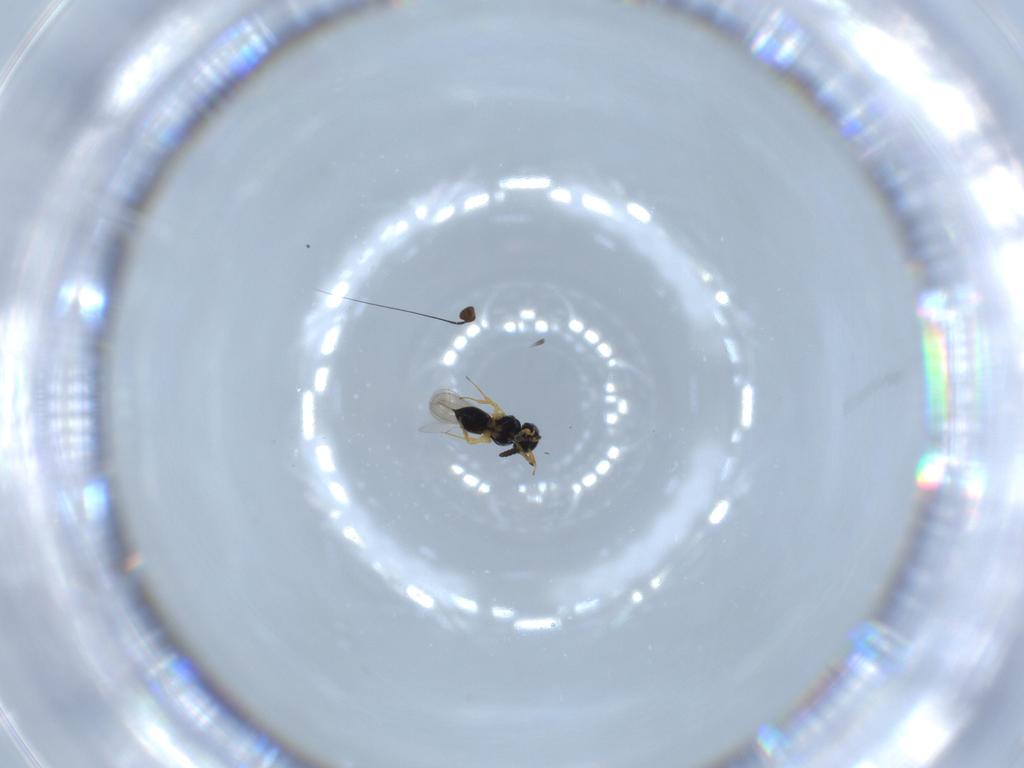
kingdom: Animalia
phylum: Arthropoda
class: Insecta
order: Hymenoptera
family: Scelionidae
